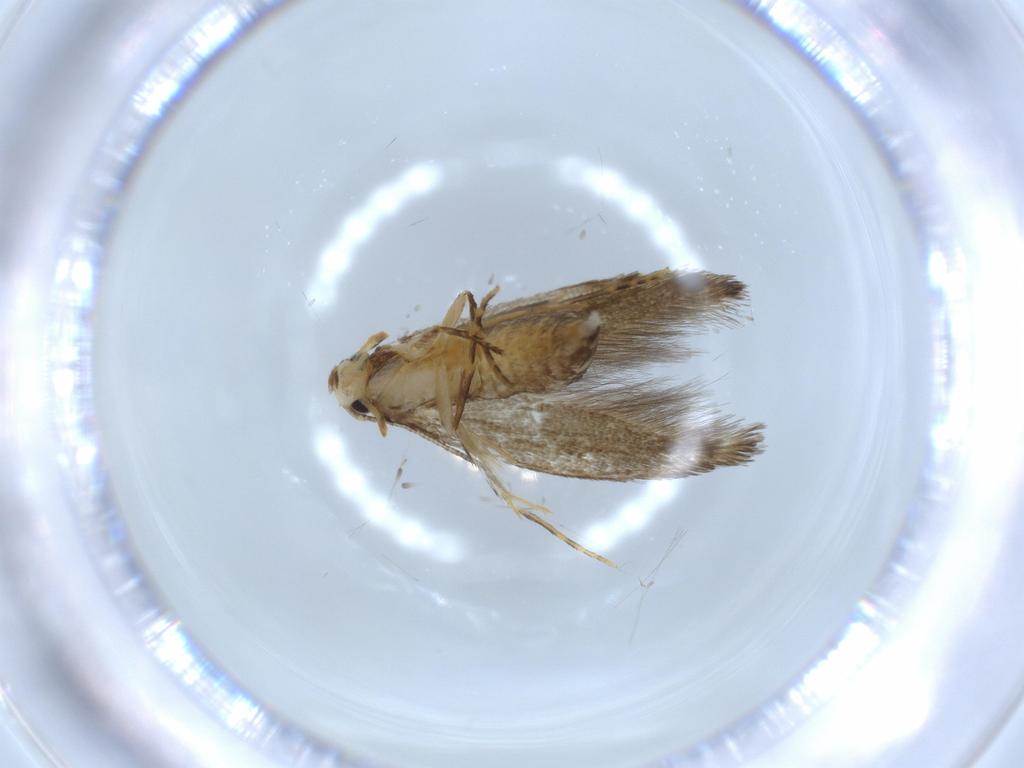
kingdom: Animalia
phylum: Arthropoda
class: Insecta
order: Lepidoptera
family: Tineidae
